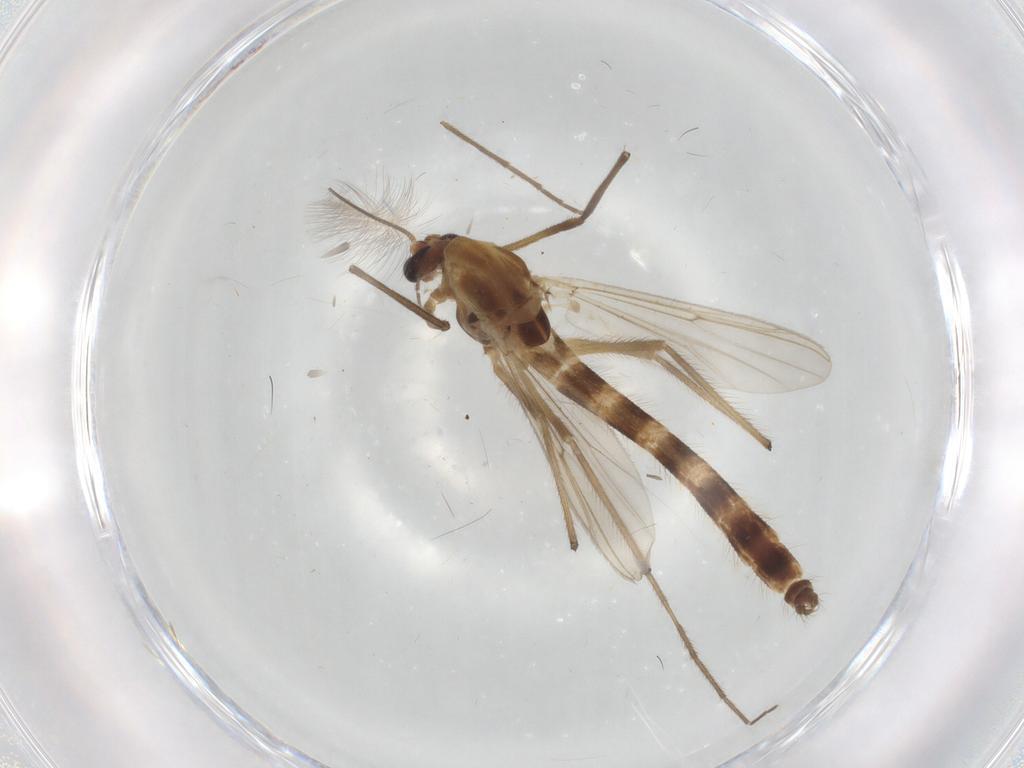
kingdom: Animalia
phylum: Arthropoda
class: Insecta
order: Diptera
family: Chironomidae
